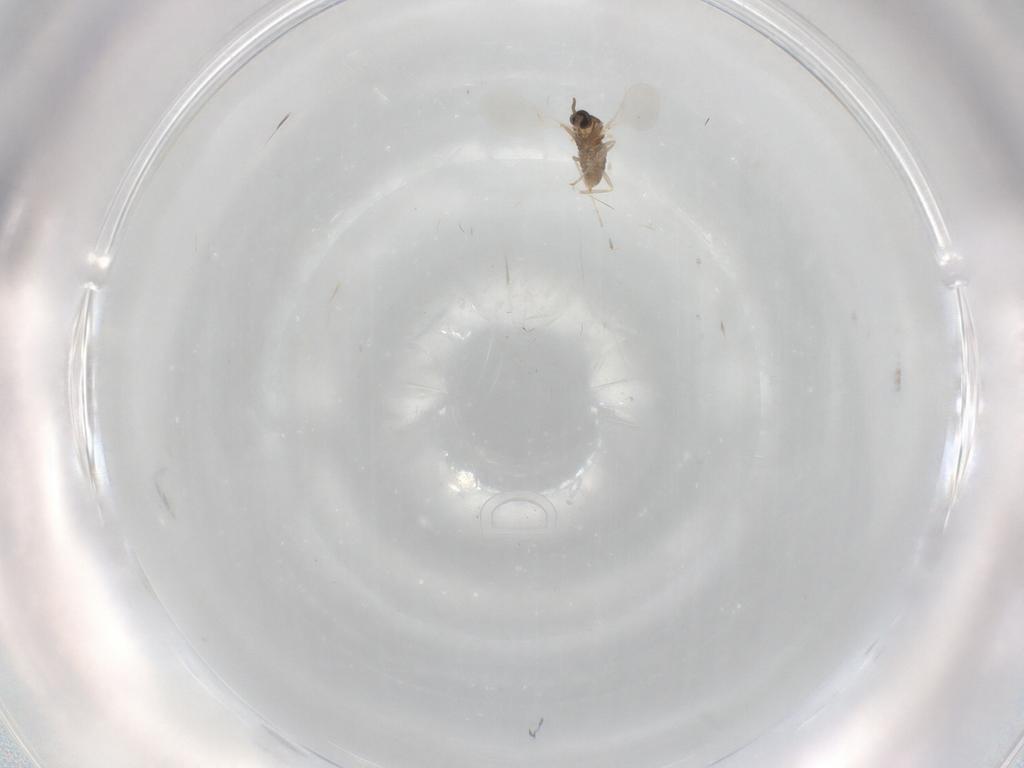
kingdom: Animalia
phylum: Arthropoda
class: Insecta
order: Diptera
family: Cecidomyiidae
